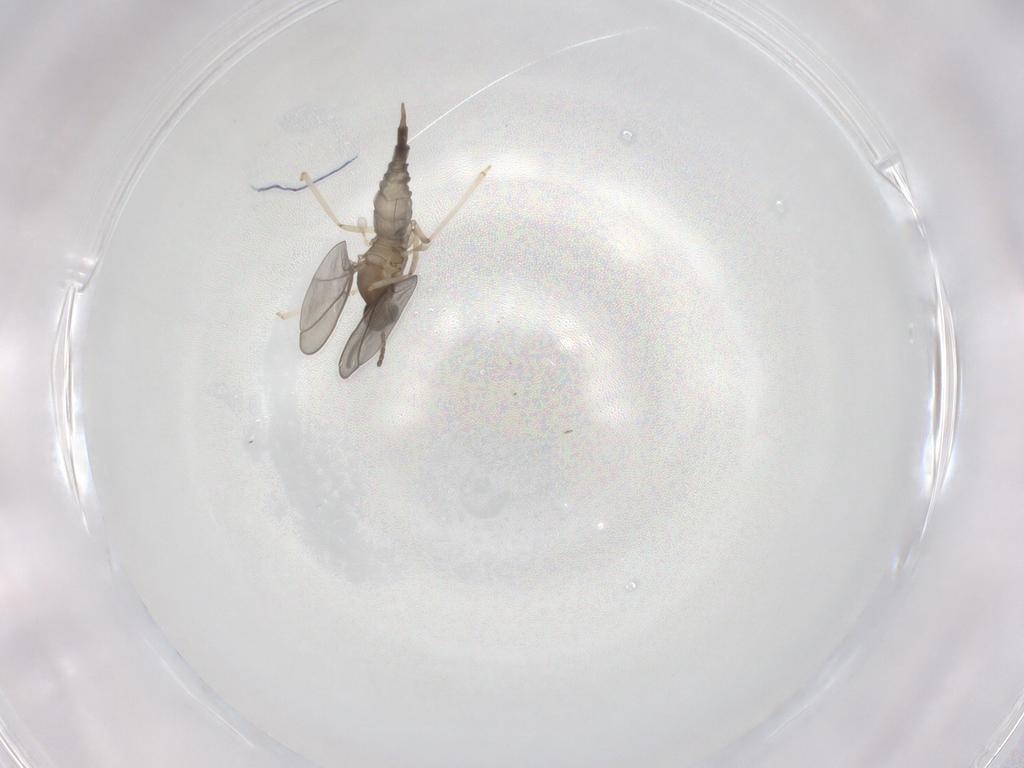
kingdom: Animalia
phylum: Arthropoda
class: Insecta
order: Diptera
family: Cecidomyiidae
